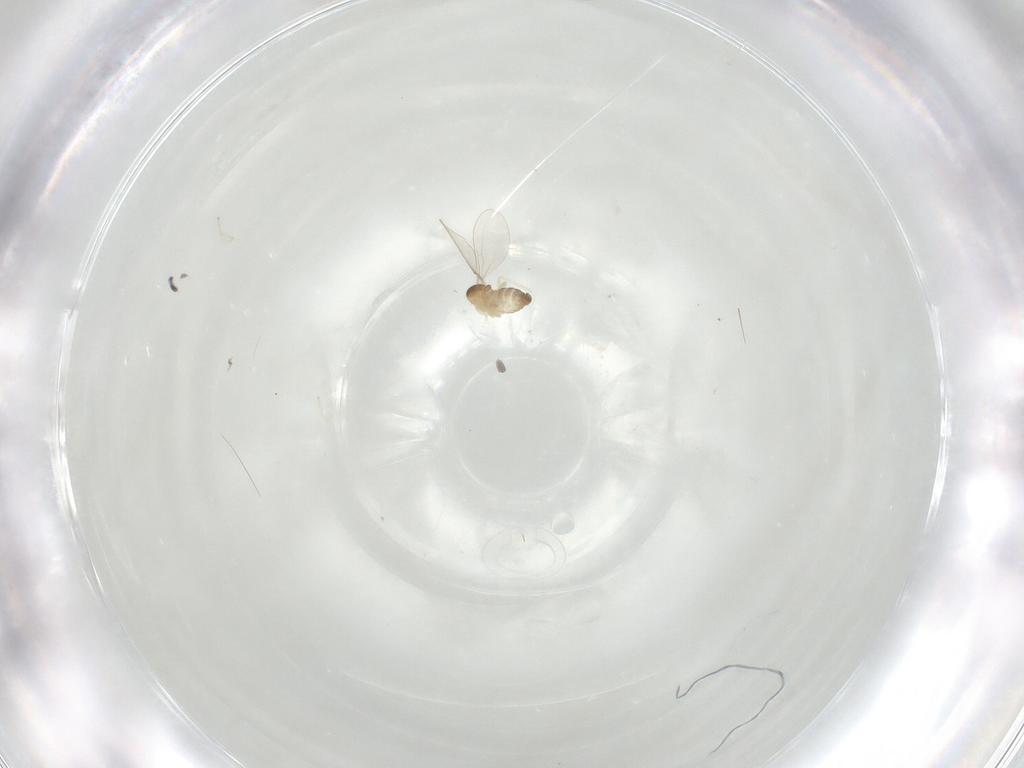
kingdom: Animalia
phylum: Arthropoda
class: Insecta
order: Diptera
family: Cecidomyiidae
